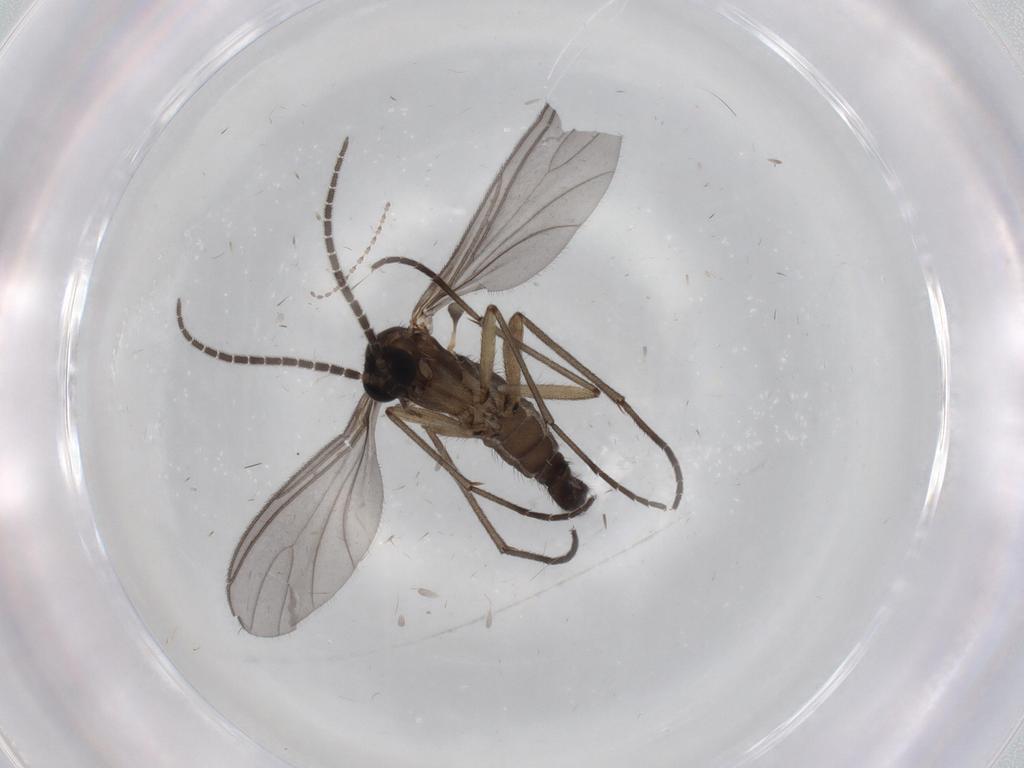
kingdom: Animalia
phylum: Arthropoda
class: Insecta
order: Diptera
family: Sciaridae
